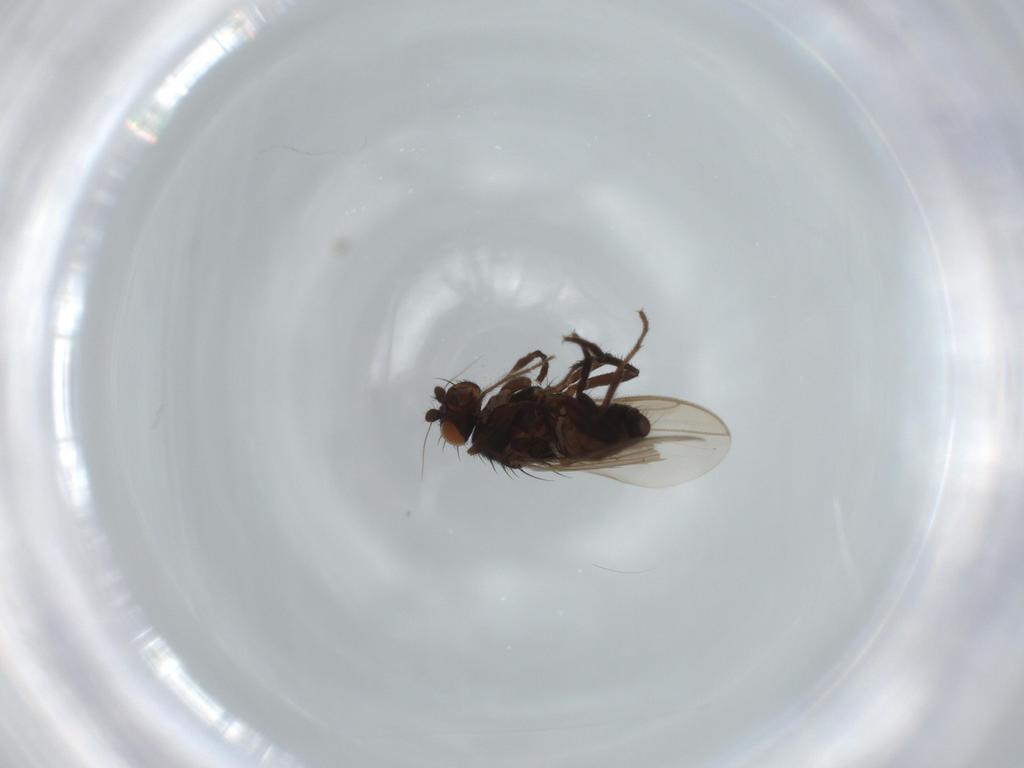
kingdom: Animalia
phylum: Arthropoda
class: Insecta
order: Diptera
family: Sphaeroceridae
